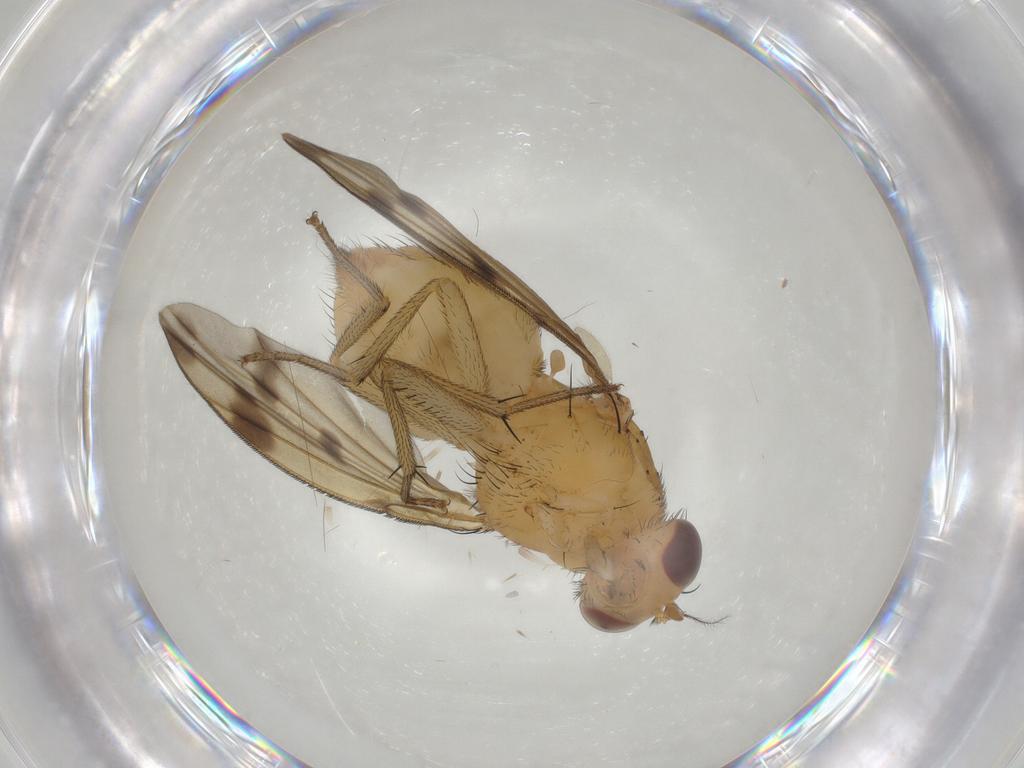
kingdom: Animalia
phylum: Arthropoda
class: Insecta
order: Diptera
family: Lauxaniidae
